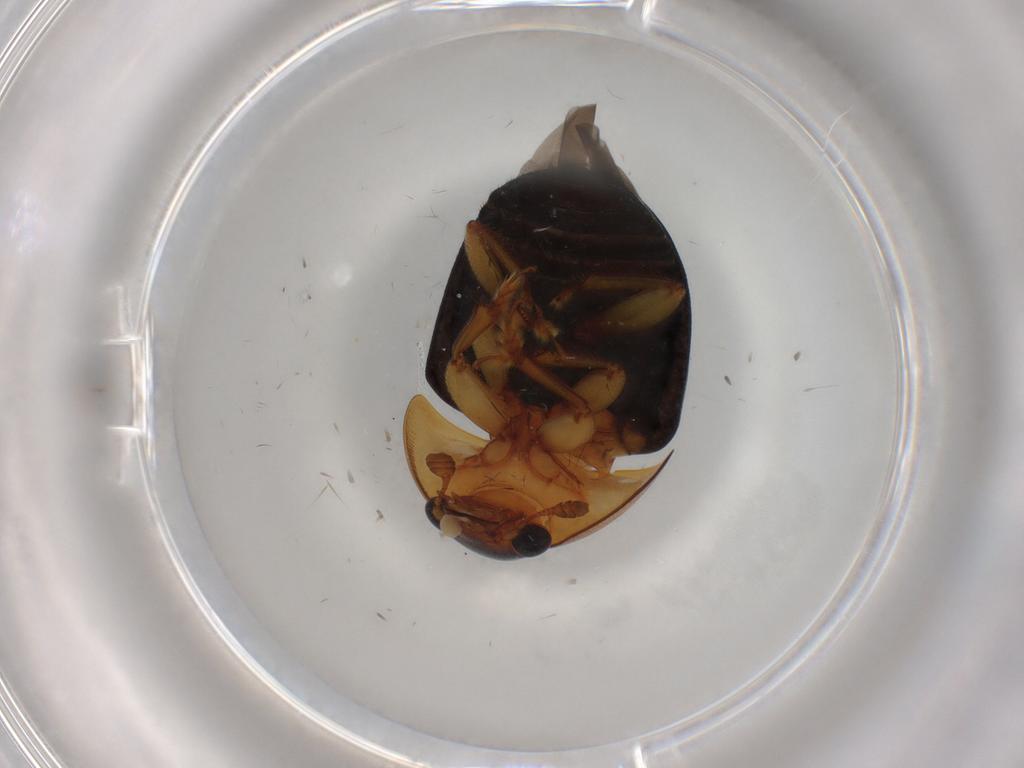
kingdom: Animalia
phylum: Arthropoda
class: Insecta
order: Coleoptera
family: Nitidulidae
